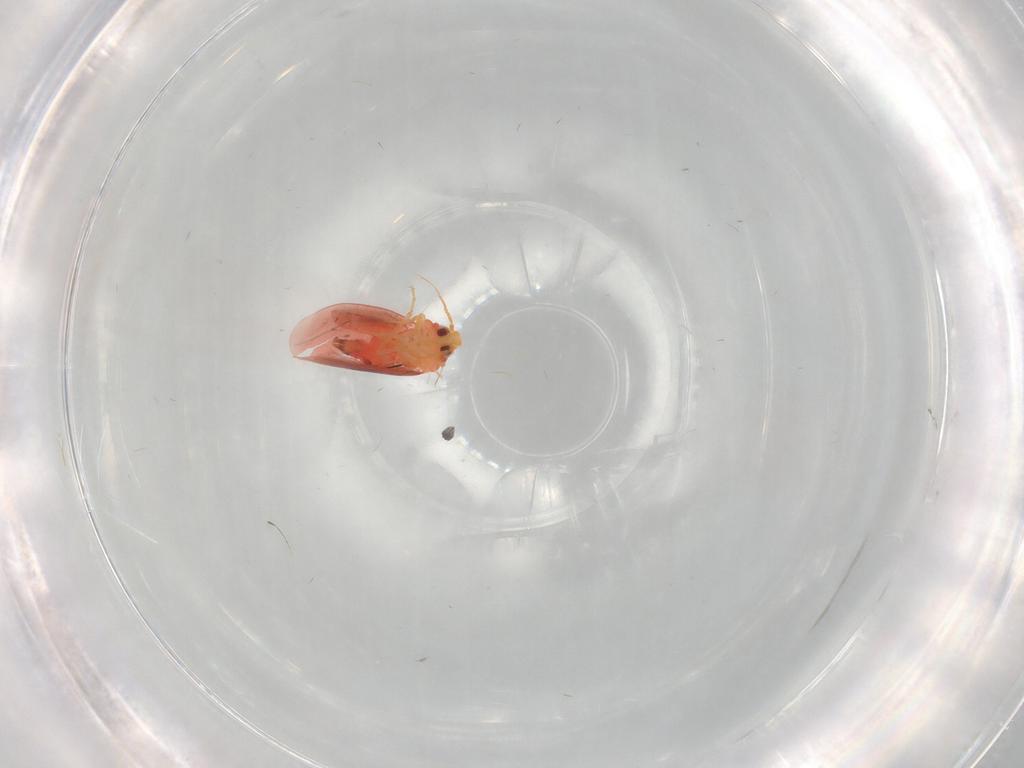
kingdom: Animalia
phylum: Arthropoda
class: Insecta
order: Hemiptera
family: Aleyrodidae
